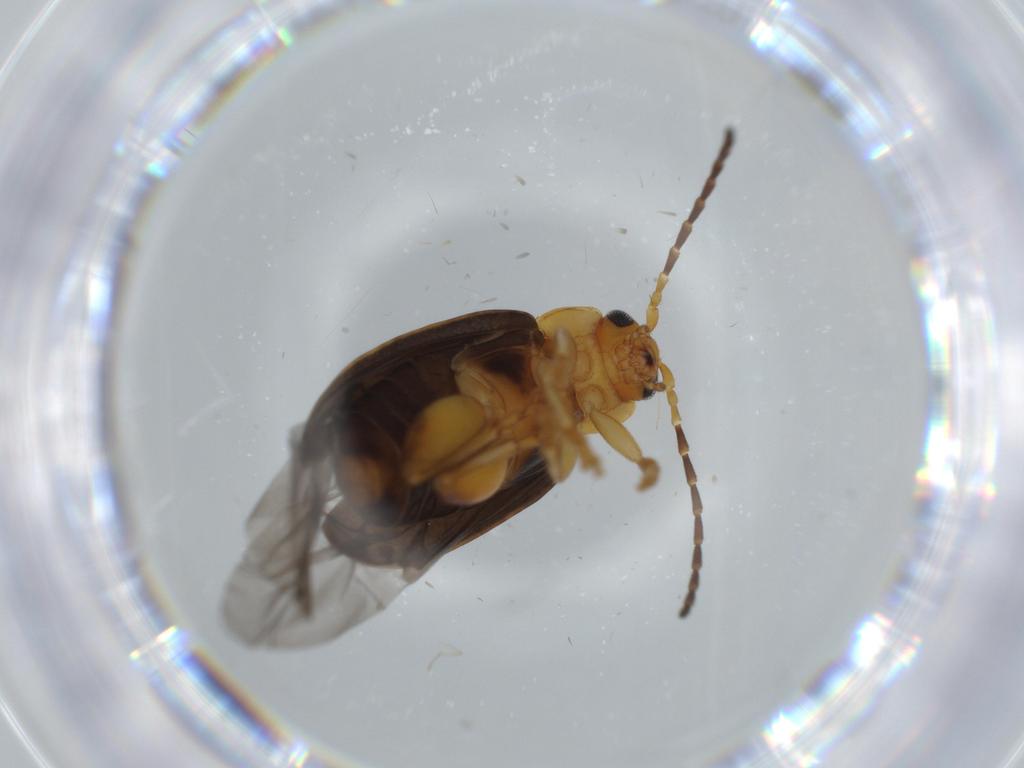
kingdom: Animalia
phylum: Arthropoda
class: Insecta
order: Coleoptera
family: Chrysomelidae
